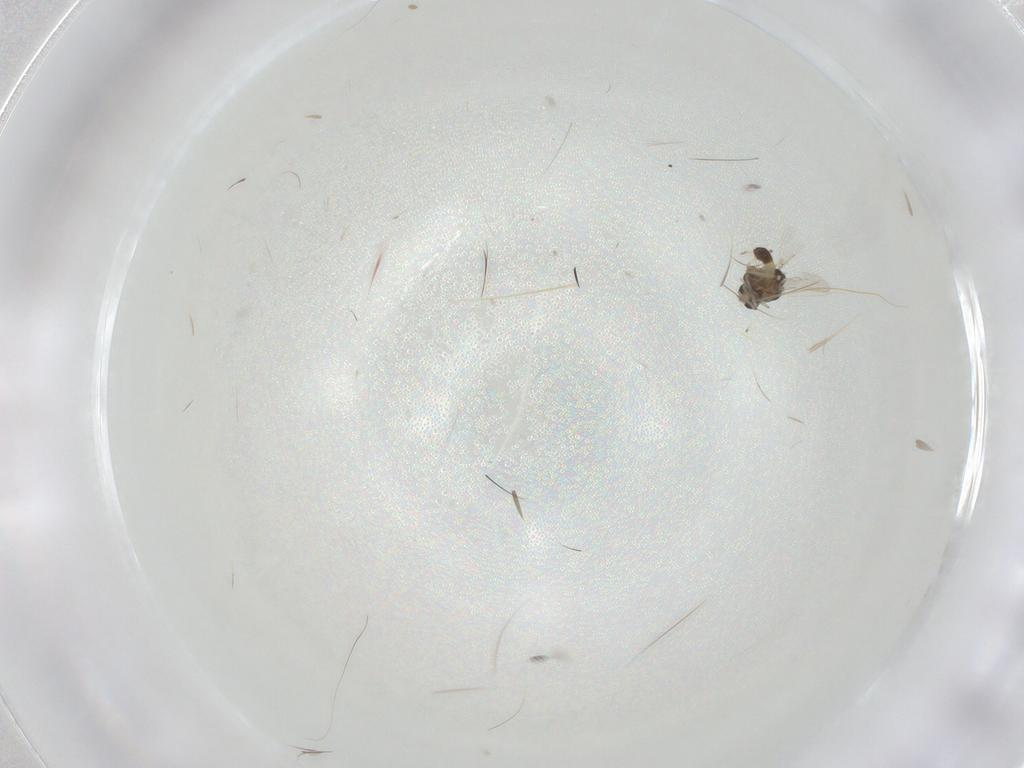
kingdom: Animalia
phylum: Arthropoda
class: Insecta
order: Diptera
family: Chironomidae
